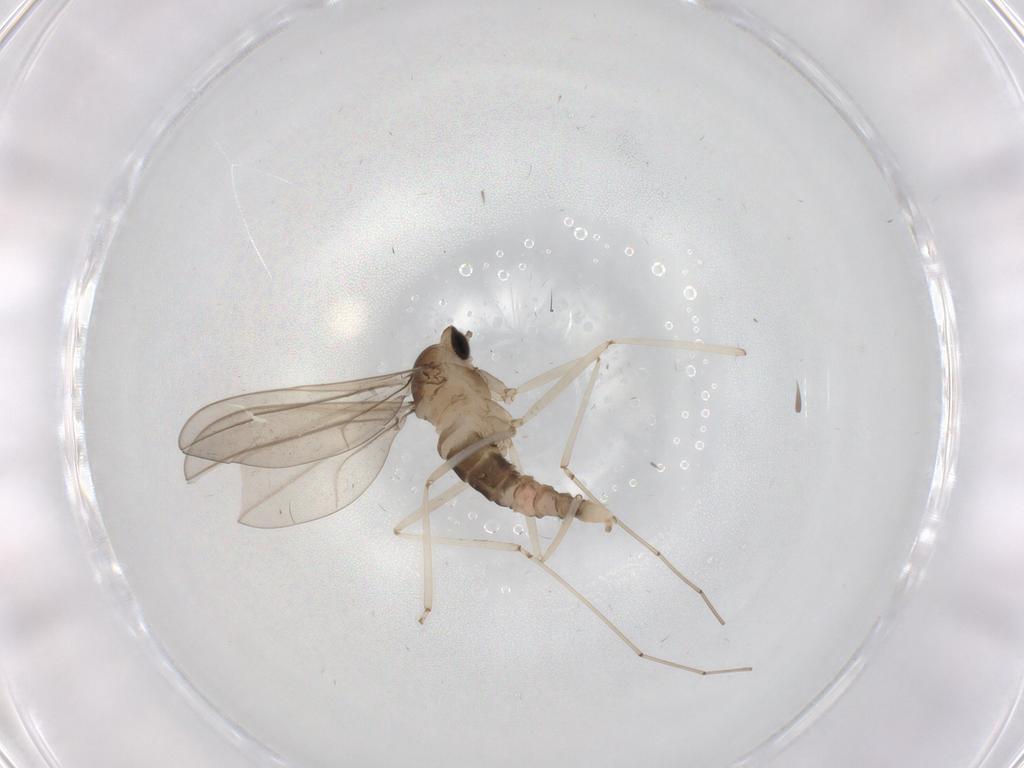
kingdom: Animalia
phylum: Arthropoda
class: Insecta
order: Diptera
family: Cecidomyiidae
